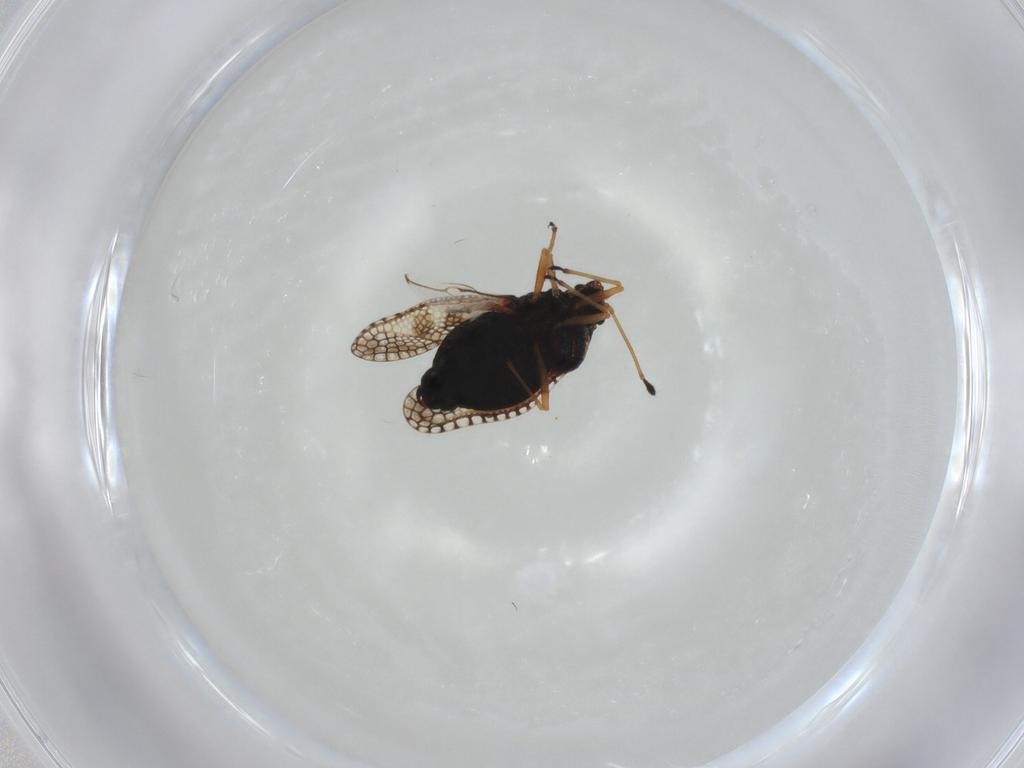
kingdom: Animalia
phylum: Arthropoda
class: Insecta
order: Hemiptera
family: Tingidae
